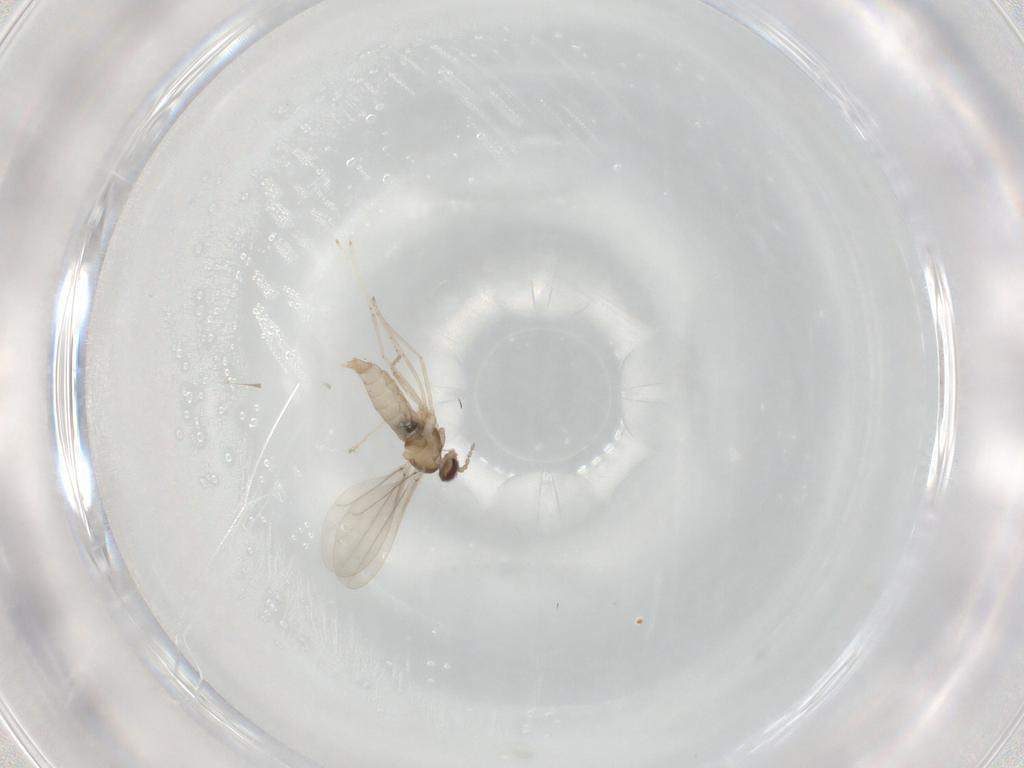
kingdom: Animalia
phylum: Arthropoda
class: Insecta
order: Diptera
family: Cecidomyiidae
